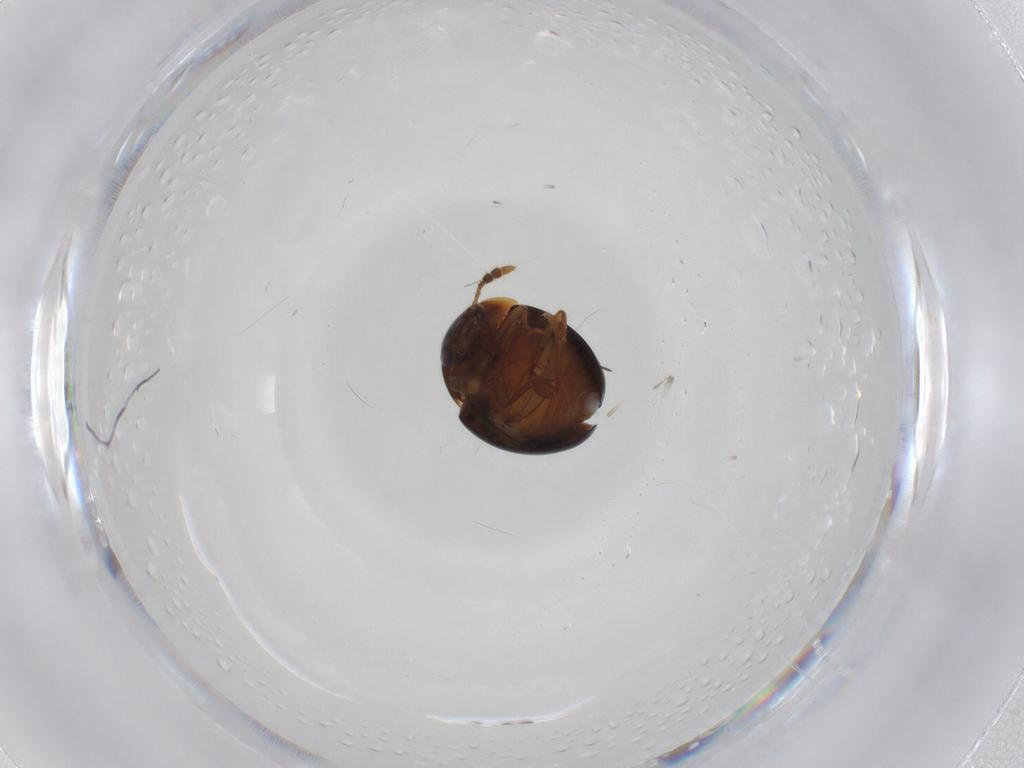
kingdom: Animalia
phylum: Arthropoda
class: Insecta
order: Coleoptera
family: Leiodidae
